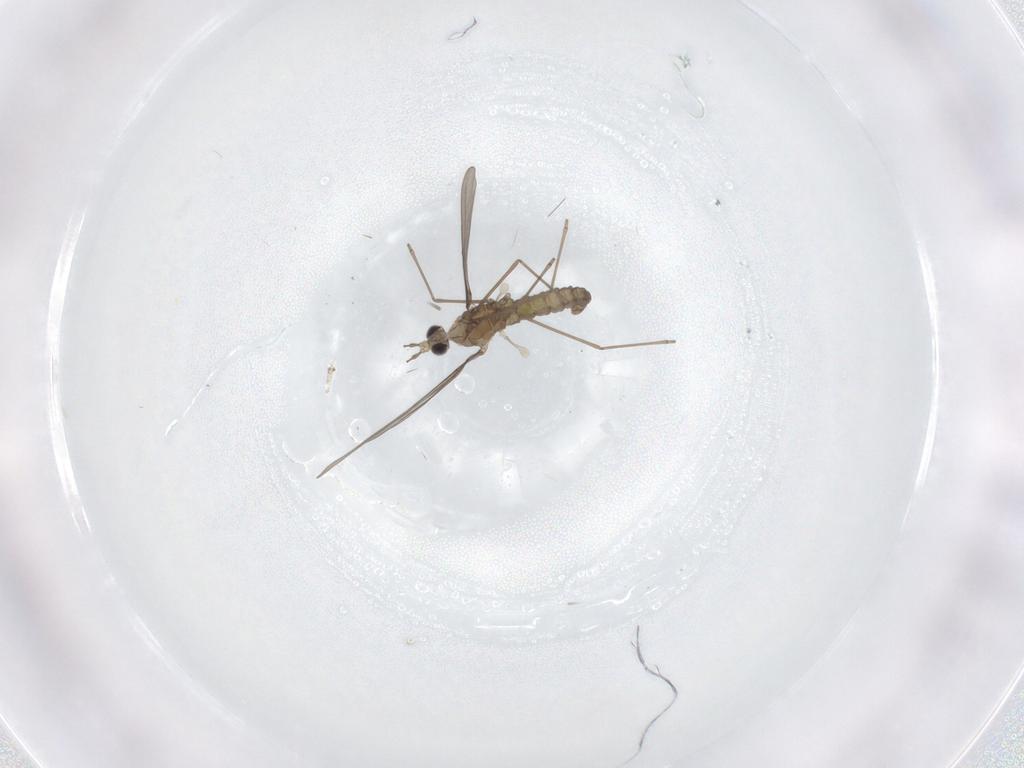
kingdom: Animalia
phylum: Arthropoda
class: Insecta
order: Diptera
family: Cecidomyiidae
